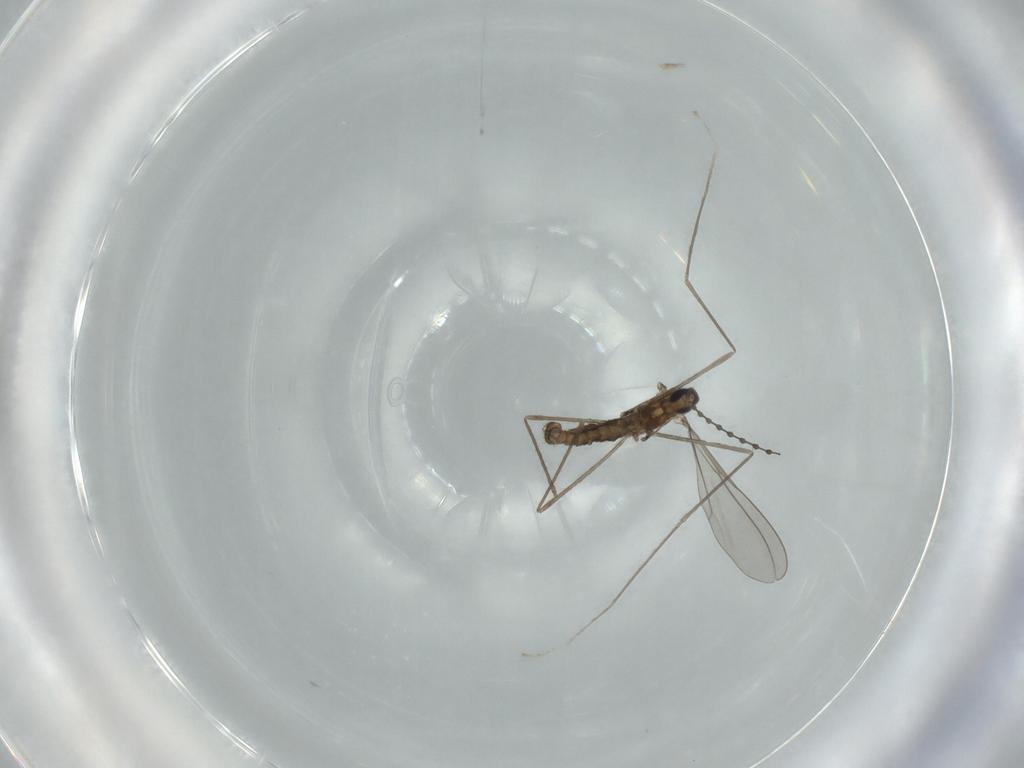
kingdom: Animalia
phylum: Arthropoda
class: Insecta
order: Diptera
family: Cecidomyiidae
